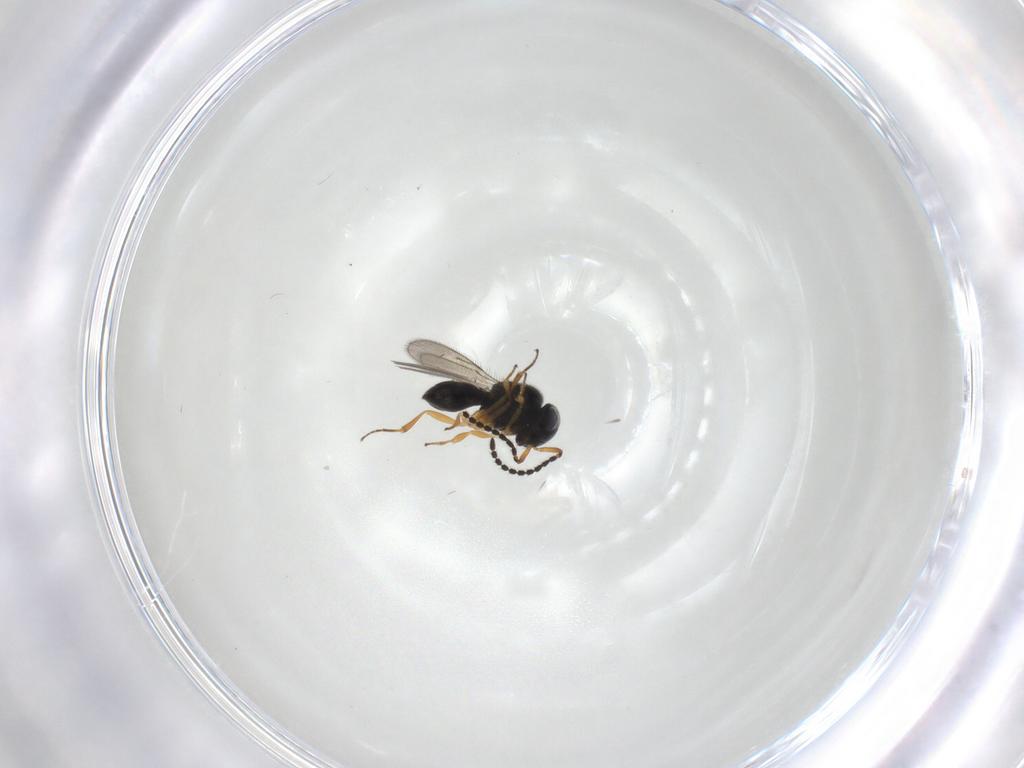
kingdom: Animalia
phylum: Arthropoda
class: Insecta
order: Hymenoptera
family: Scelionidae
